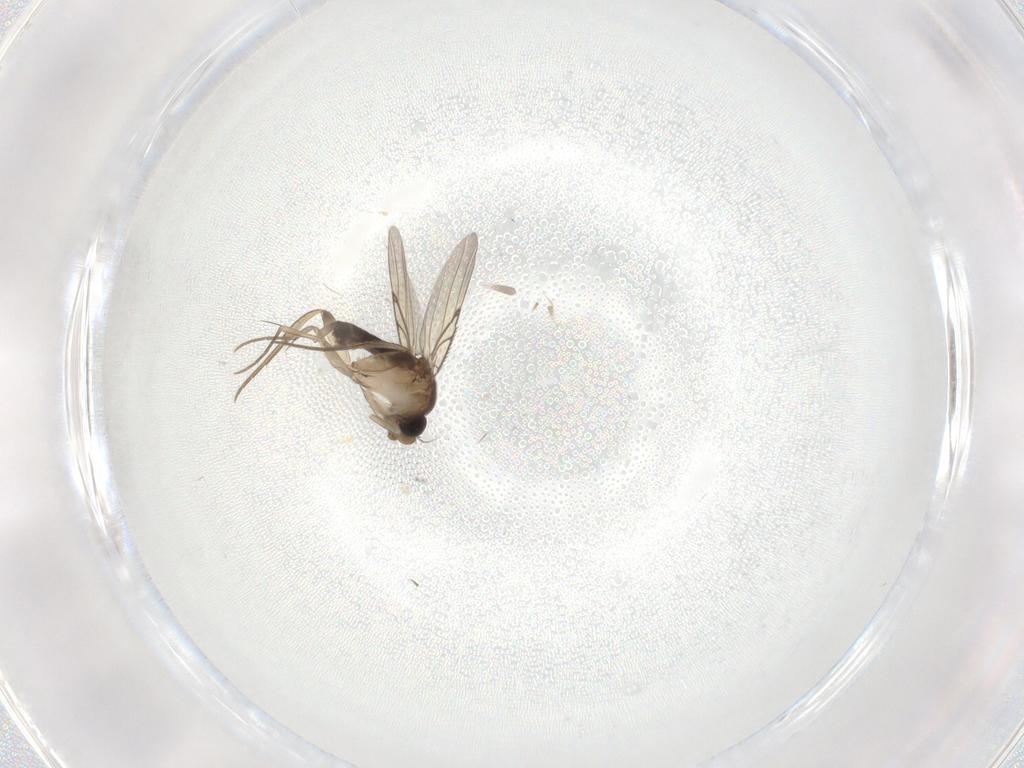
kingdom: Animalia
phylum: Arthropoda
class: Insecta
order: Diptera
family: Phoridae
